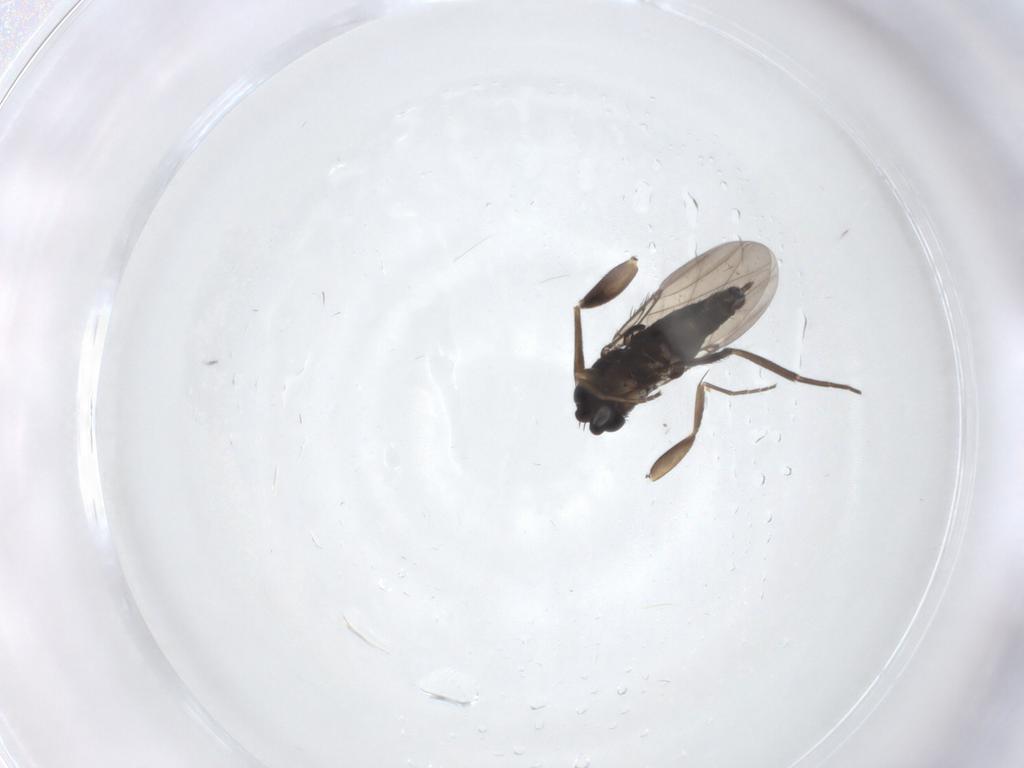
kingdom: Animalia
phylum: Arthropoda
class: Insecta
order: Diptera
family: Phoridae
